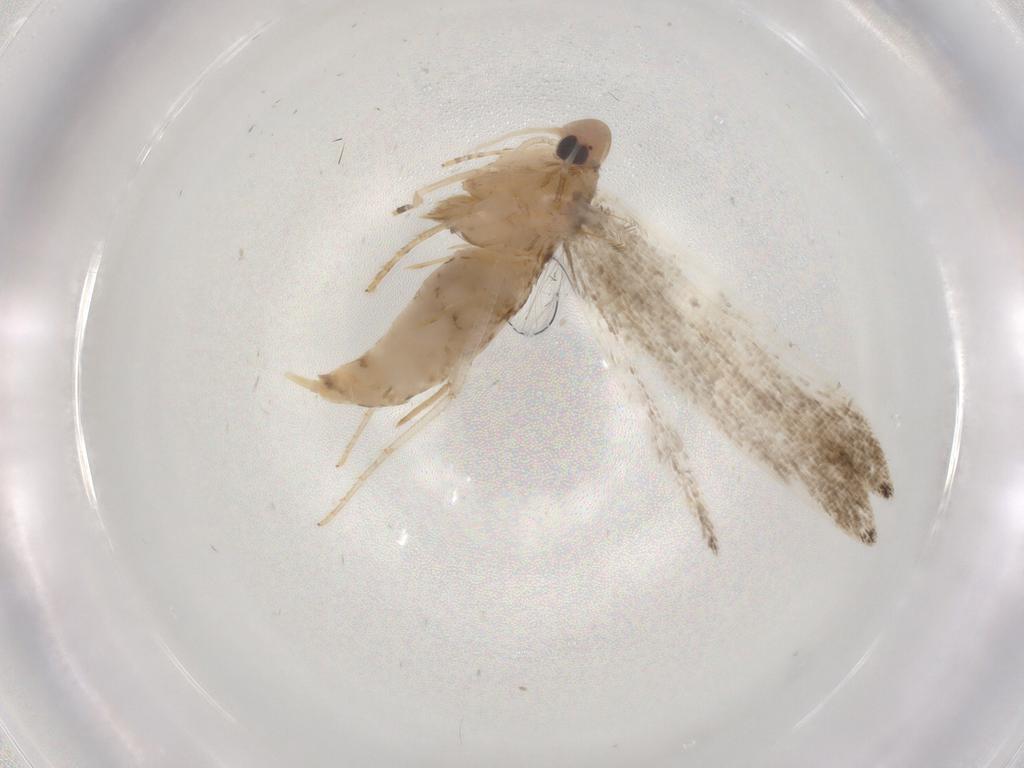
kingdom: Animalia
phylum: Arthropoda
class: Insecta
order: Lepidoptera
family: Cosmopterigidae
